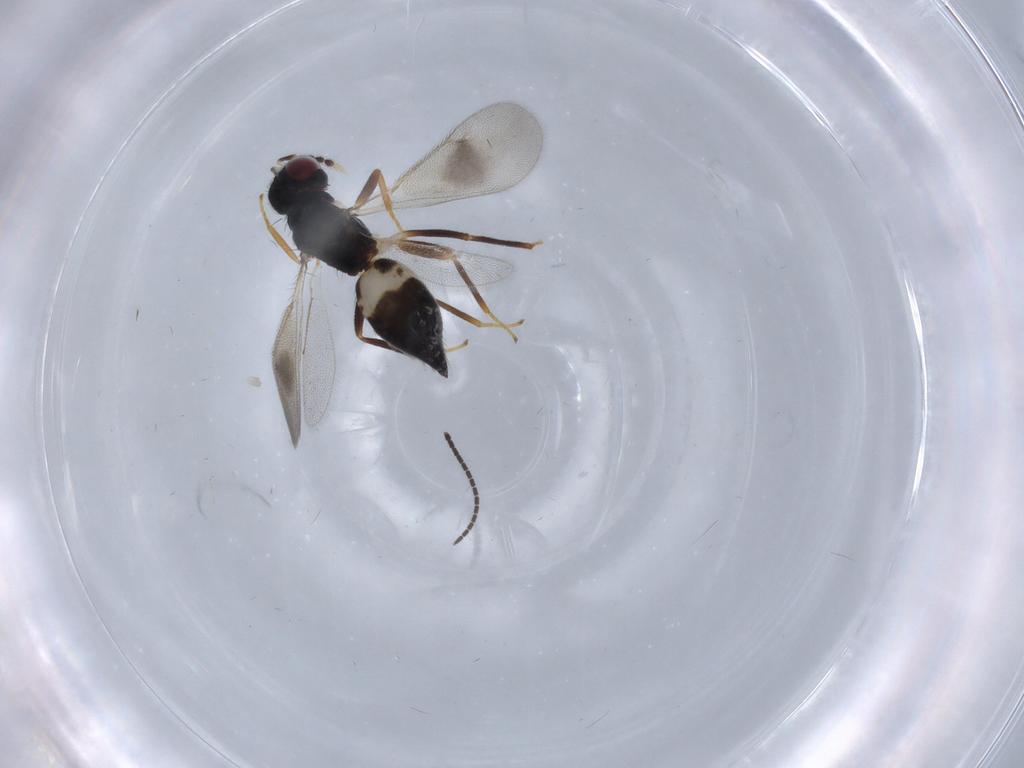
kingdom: Animalia
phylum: Arthropoda
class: Insecta
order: Hymenoptera
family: Eulophidae
